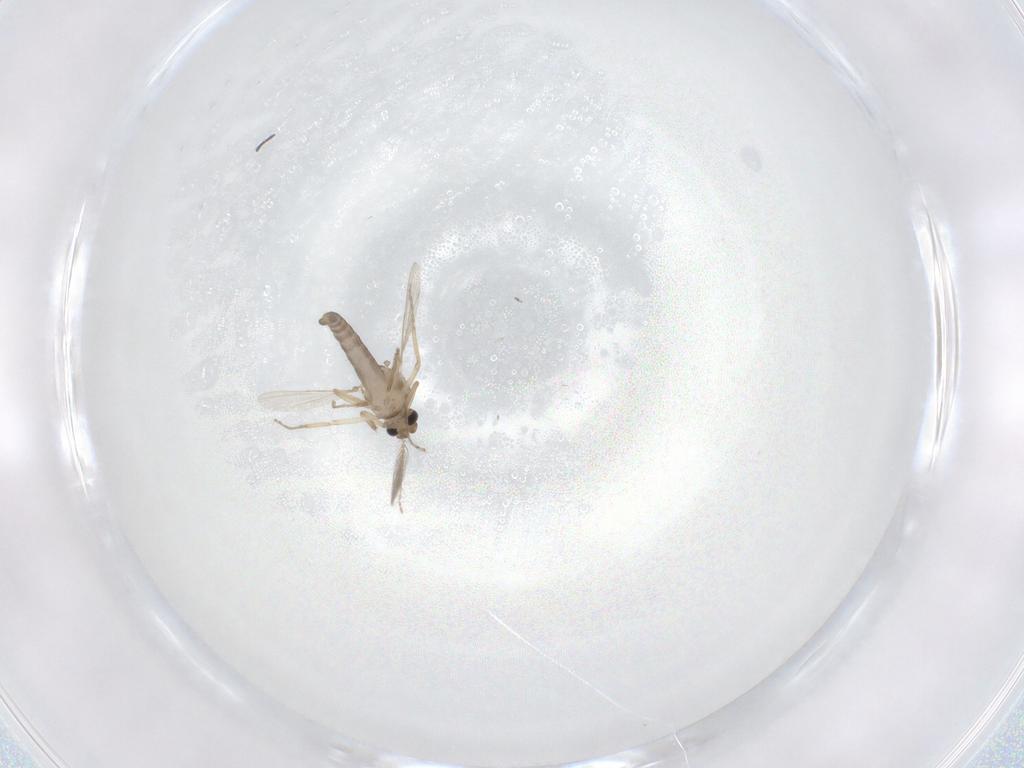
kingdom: Animalia
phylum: Arthropoda
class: Insecta
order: Diptera
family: Ceratopogonidae
